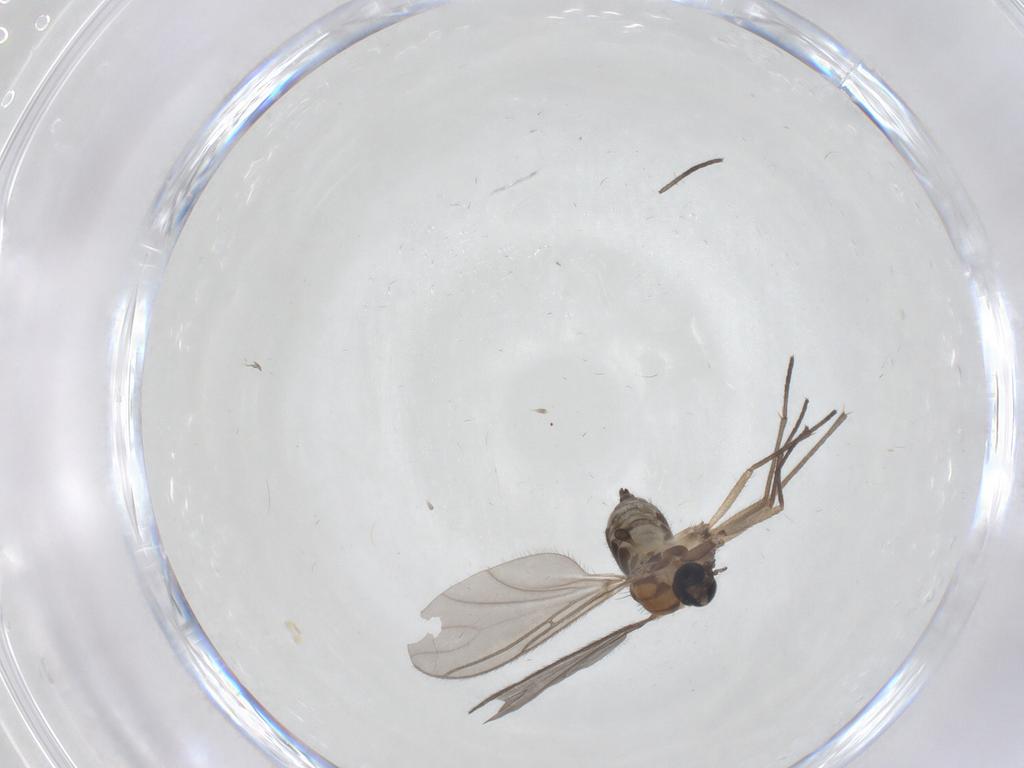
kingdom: Animalia
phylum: Arthropoda
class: Insecta
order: Diptera
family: Sciaridae
